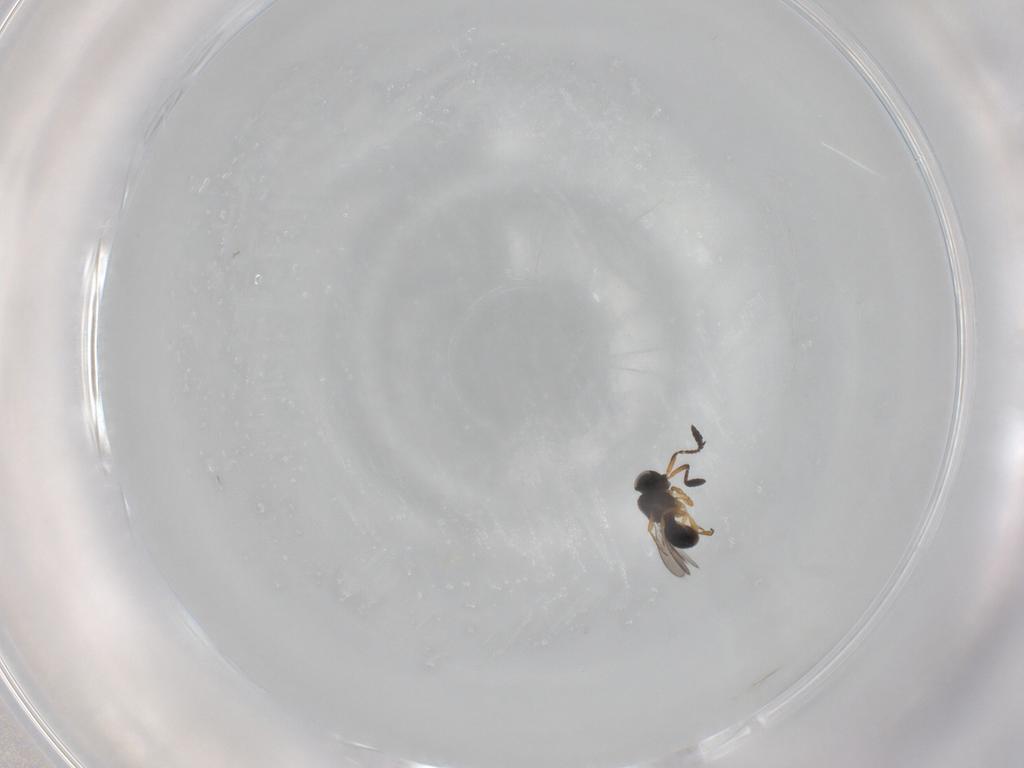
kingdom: Animalia
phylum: Arthropoda
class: Insecta
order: Hymenoptera
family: Scelionidae
